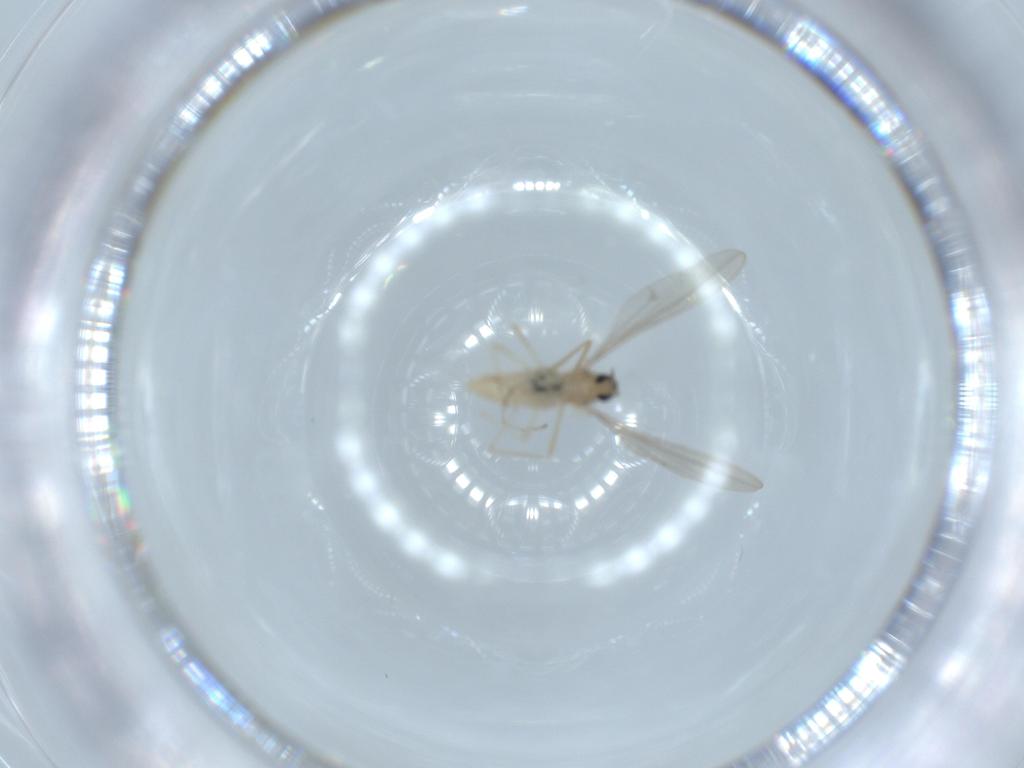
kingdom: Animalia
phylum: Arthropoda
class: Insecta
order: Diptera
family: Cecidomyiidae
